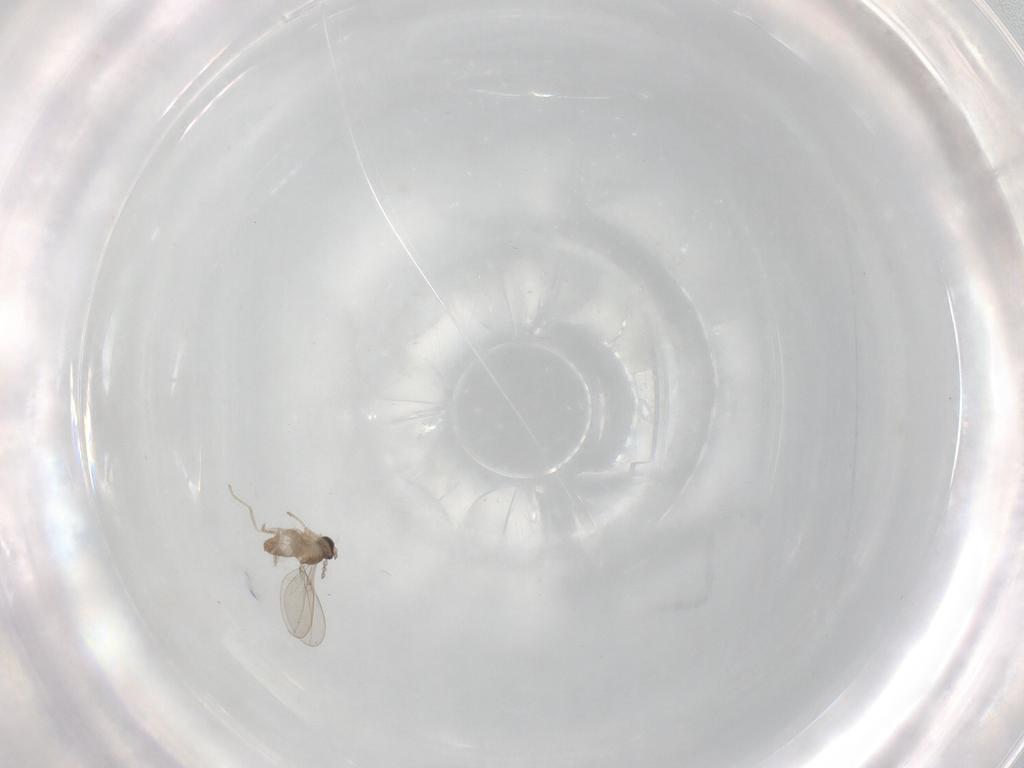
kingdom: Animalia
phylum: Arthropoda
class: Insecta
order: Diptera
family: Cecidomyiidae
